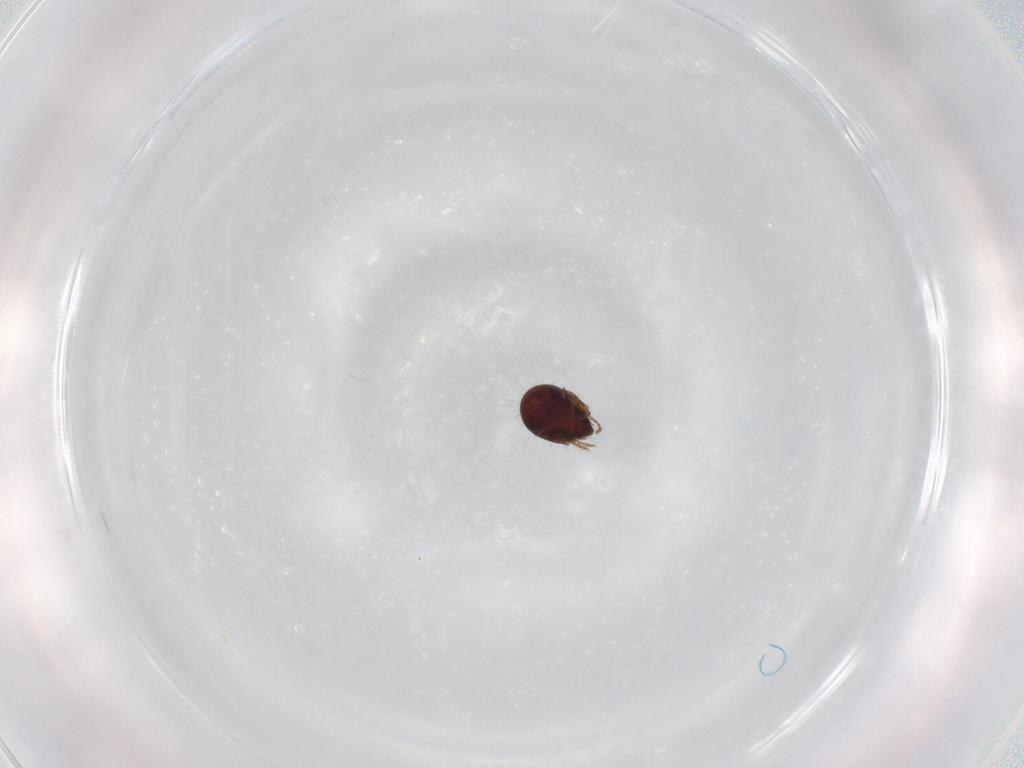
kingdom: Animalia
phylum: Arthropoda
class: Arachnida
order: Sarcoptiformes
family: Humerobatidae
